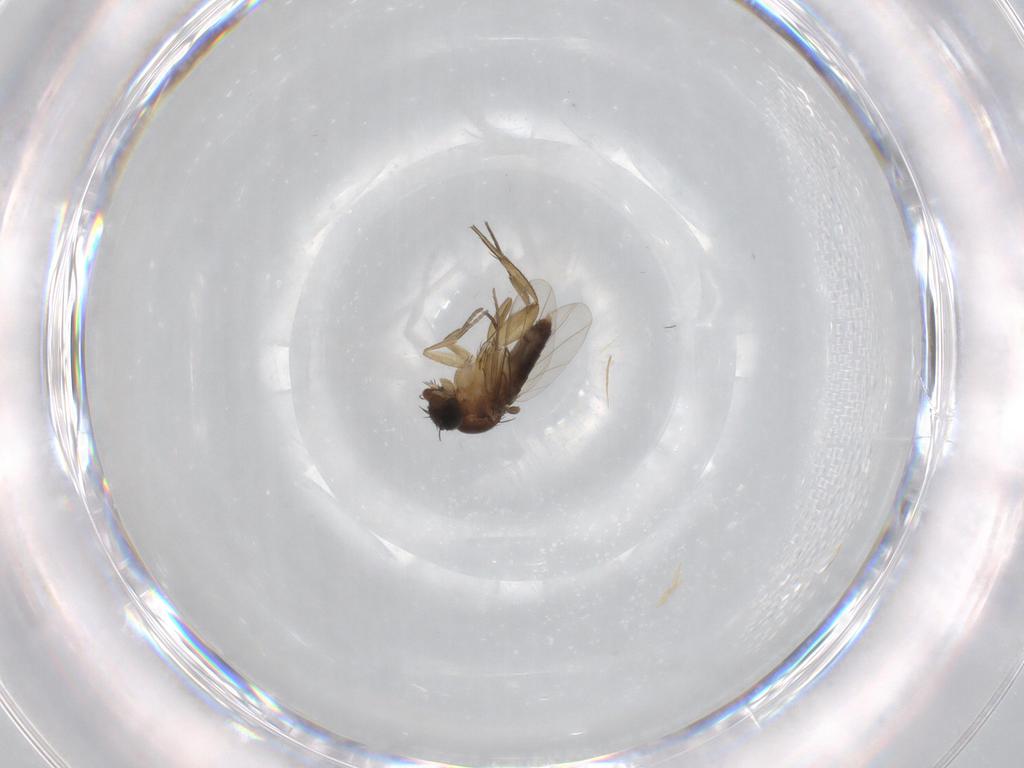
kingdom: Animalia
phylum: Arthropoda
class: Insecta
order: Diptera
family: Phoridae
